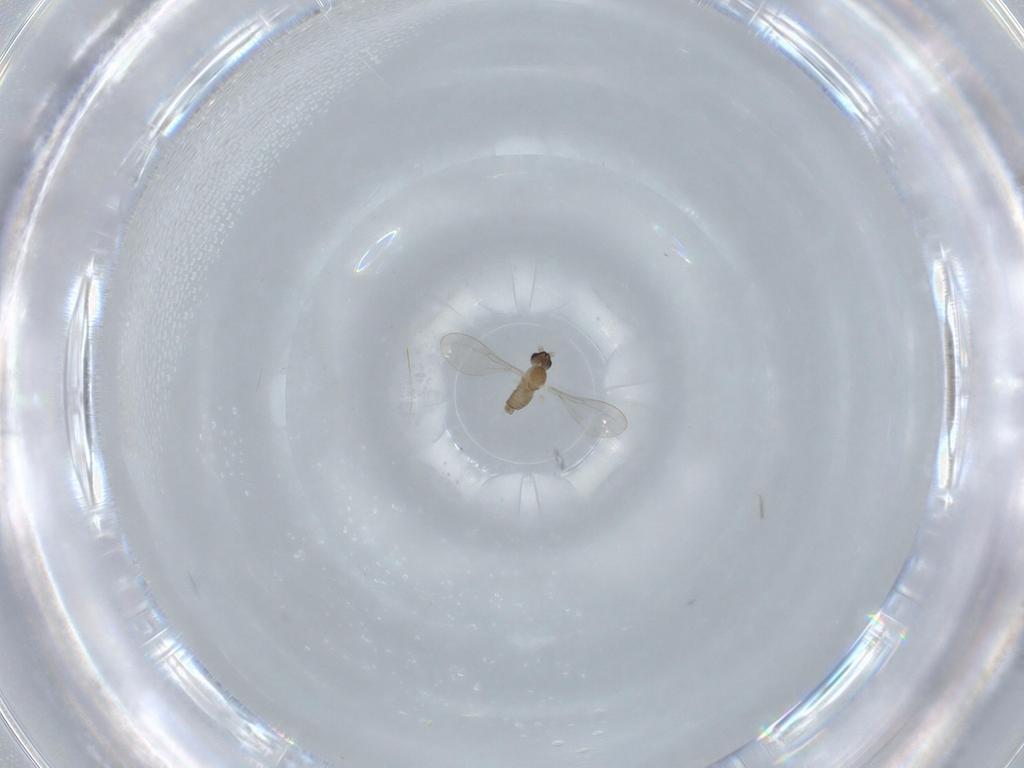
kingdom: Animalia
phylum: Arthropoda
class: Insecta
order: Diptera
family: Cecidomyiidae
